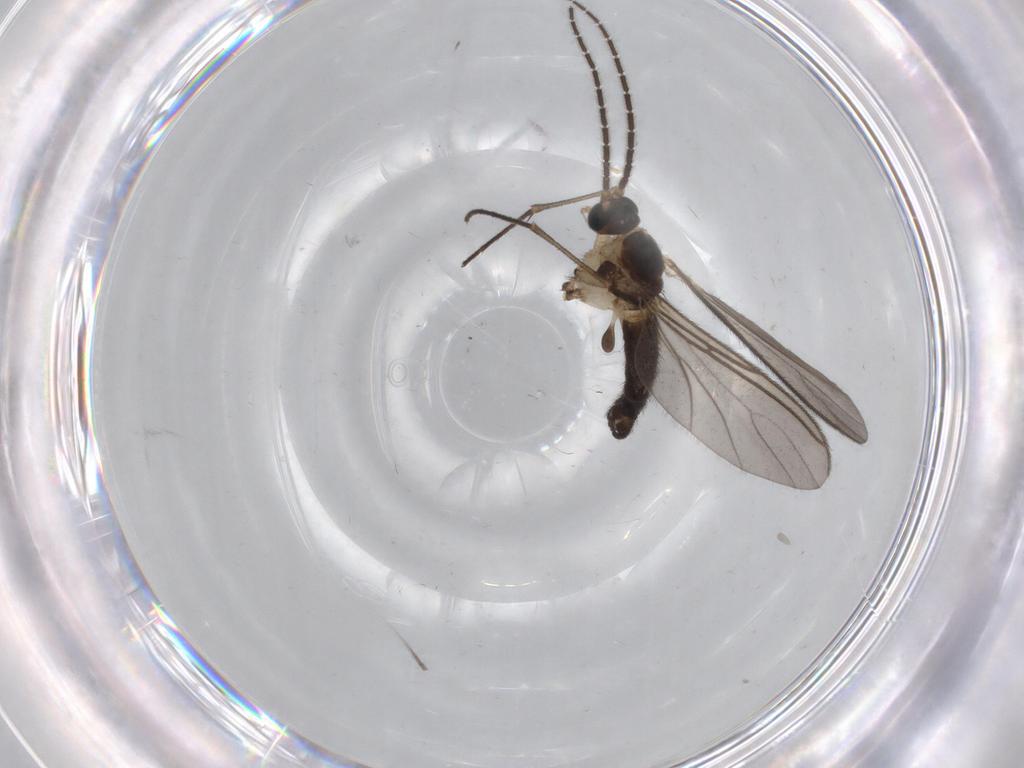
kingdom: Animalia
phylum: Arthropoda
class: Insecta
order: Diptera
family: Sciaridae
